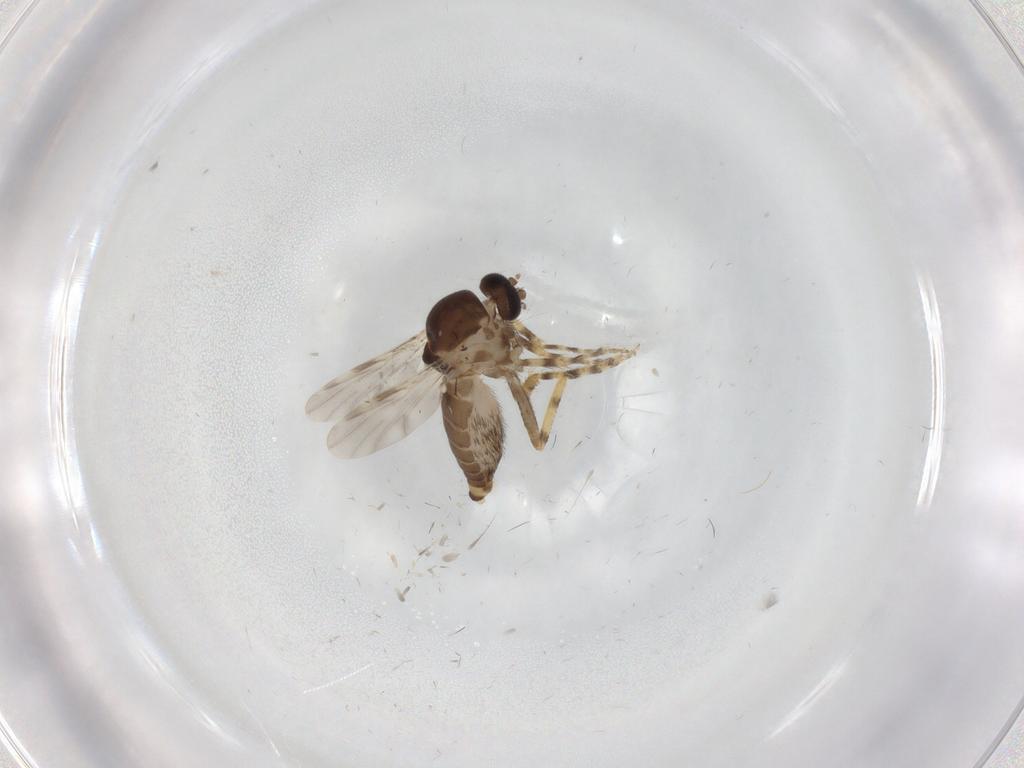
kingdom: Animalia
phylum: Arthropoda
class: Insecta
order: Diptera
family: Ceratopogonidae
